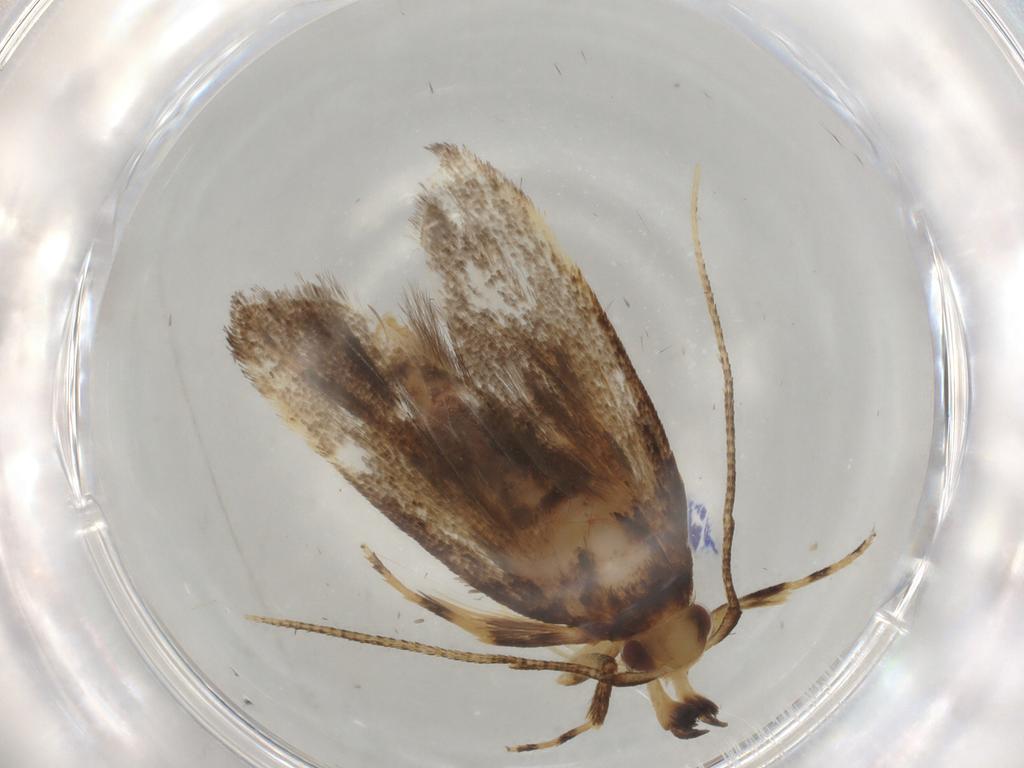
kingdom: Animalia
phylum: Arthropoda
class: Insecta
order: Lepidoptera
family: Lecithoceridae
